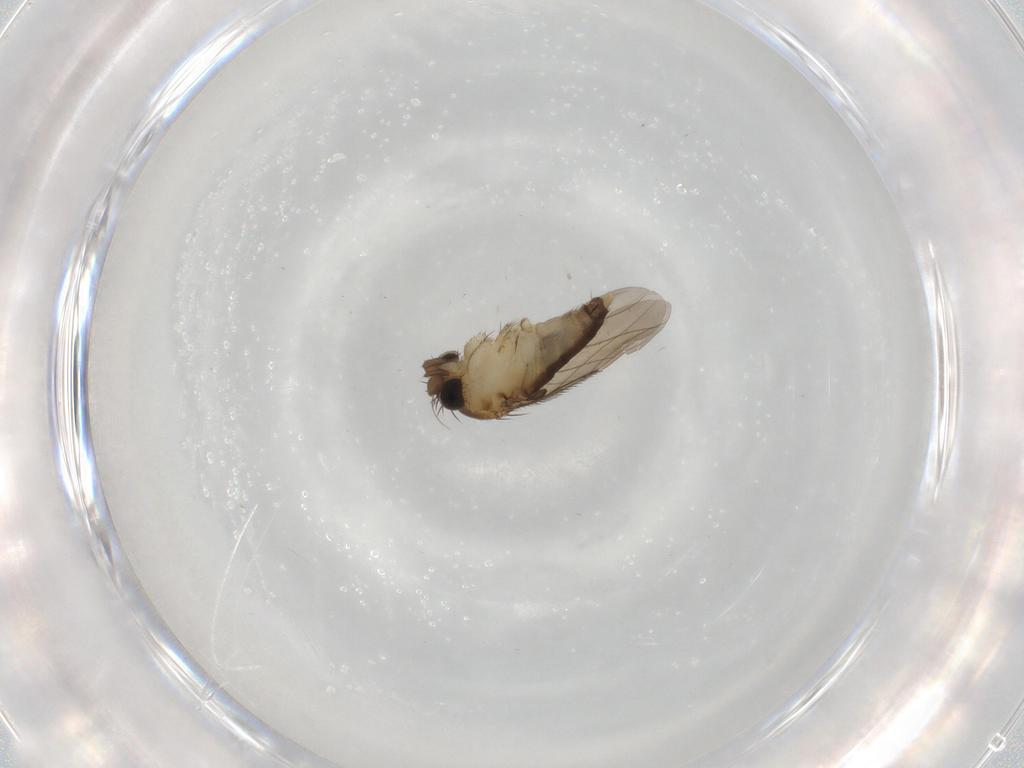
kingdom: Animalia
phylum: Arthropoda
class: Insecta
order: Diptera
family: Phoridae
